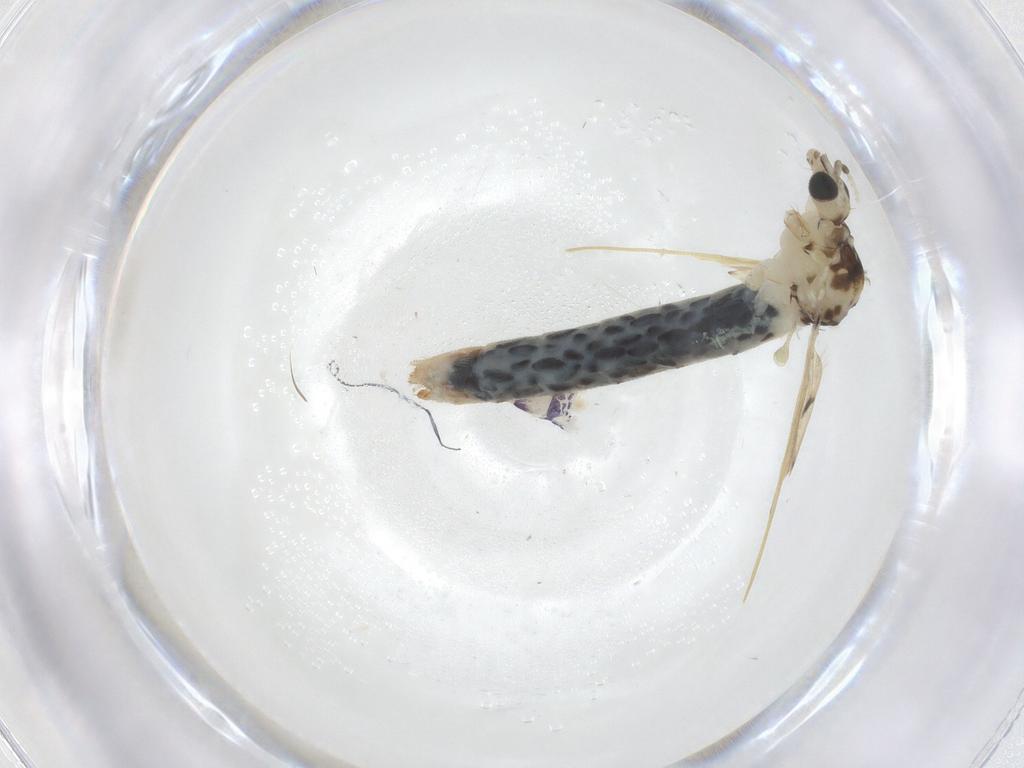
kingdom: Animalia
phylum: Arthropoda
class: Insecta
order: Diptera
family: Limoniidae
